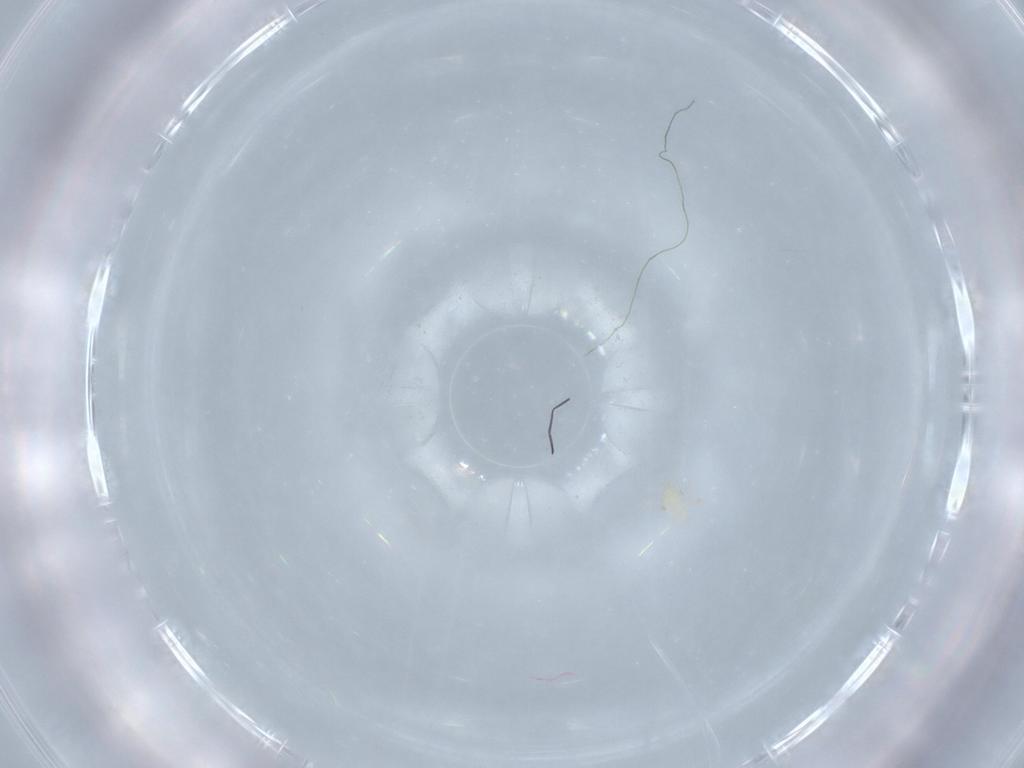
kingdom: Animalia
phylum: Arthropoda
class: Arachnida
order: Trombidiformes
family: Trombidiidae
